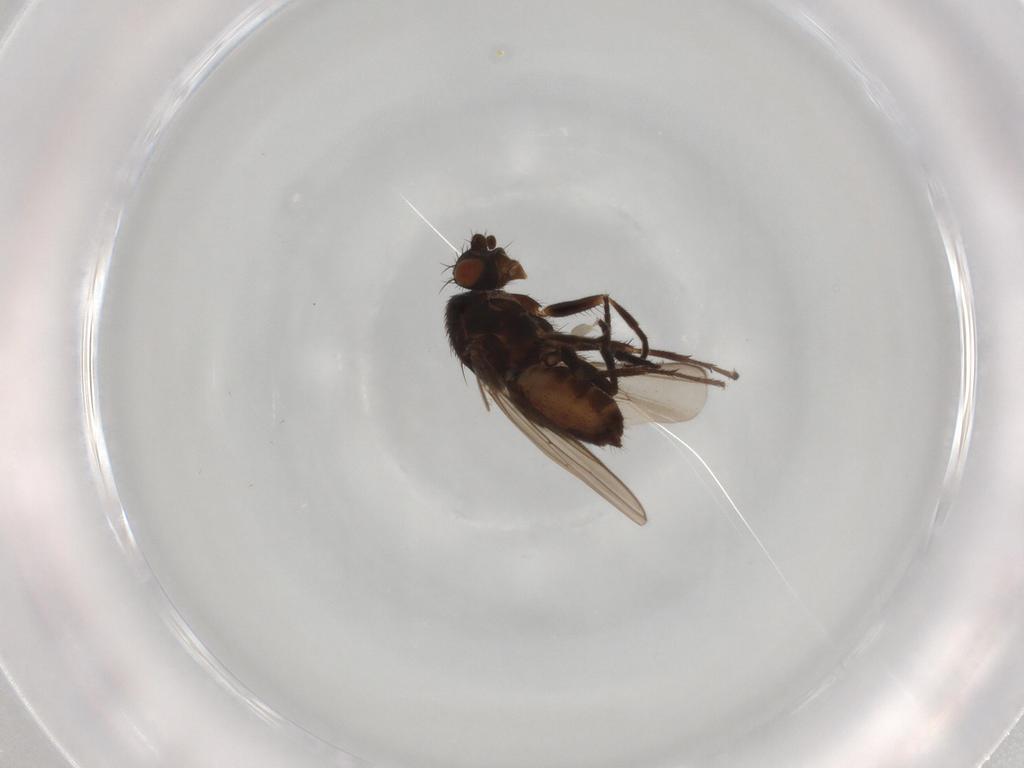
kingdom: Animalia
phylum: Arthropoda
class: Insecta
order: Diptera
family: Sphaeroceridae
